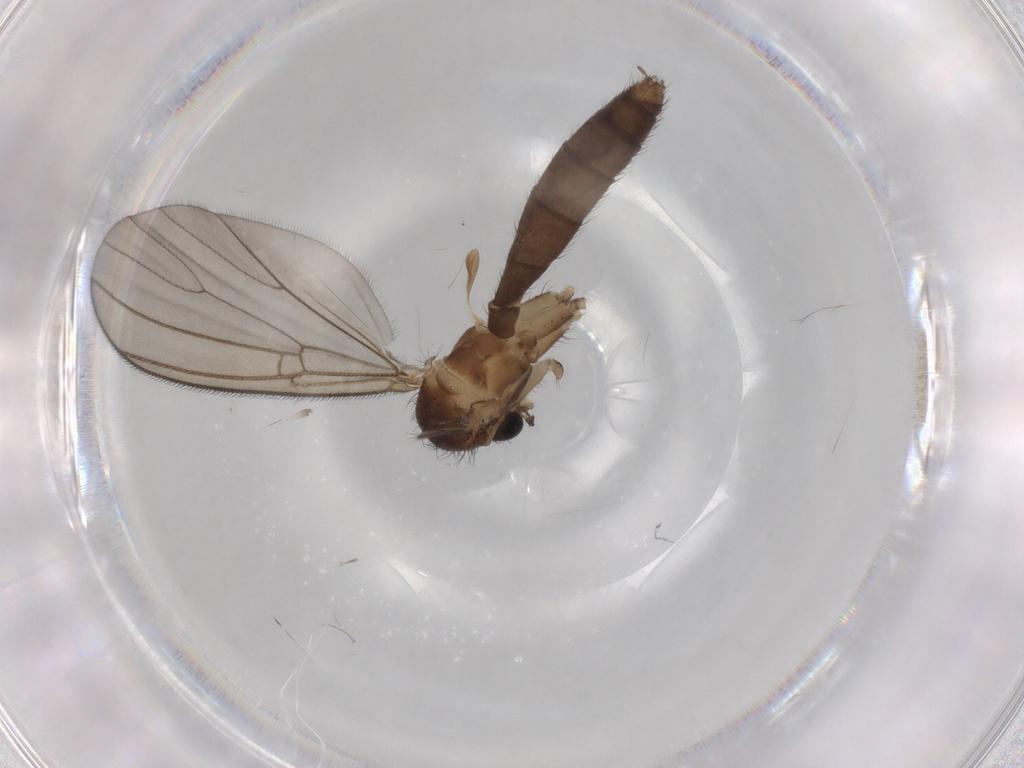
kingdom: Animalia
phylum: Arthropoda
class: Insecta
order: Diptera
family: Mycetophilidae
